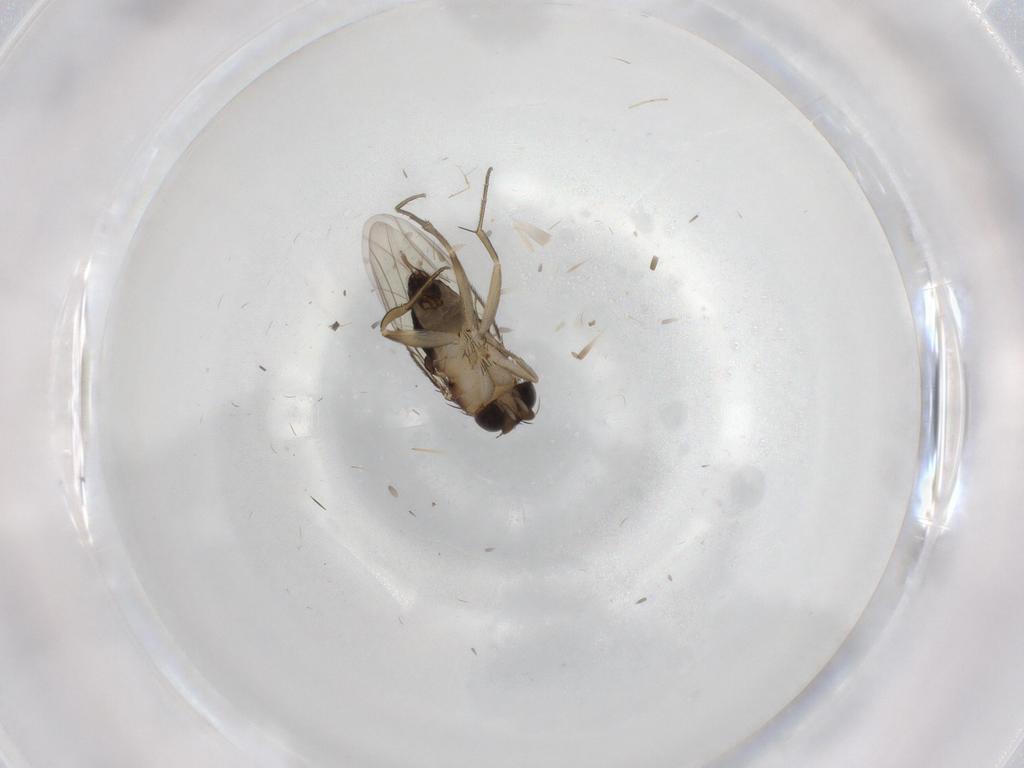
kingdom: Animalia
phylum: Arthropoda
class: Insecta
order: Diptera
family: Phoridae
